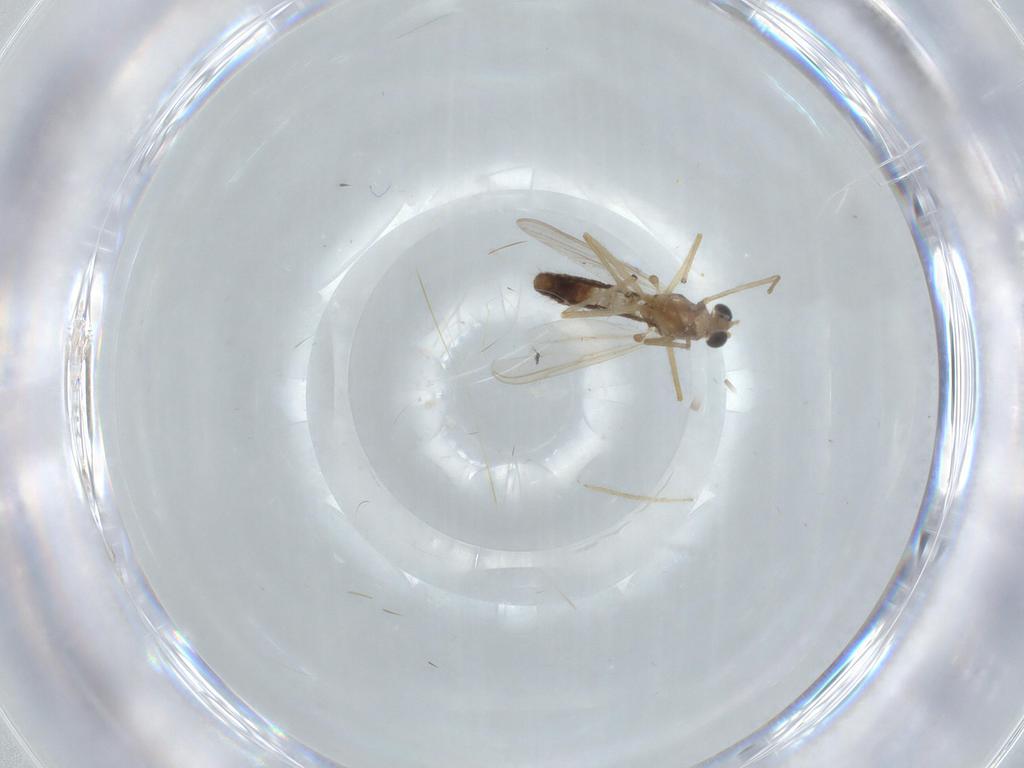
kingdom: Animalia
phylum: Arthropoda
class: Insecta
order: Diptera
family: Chironomidae
